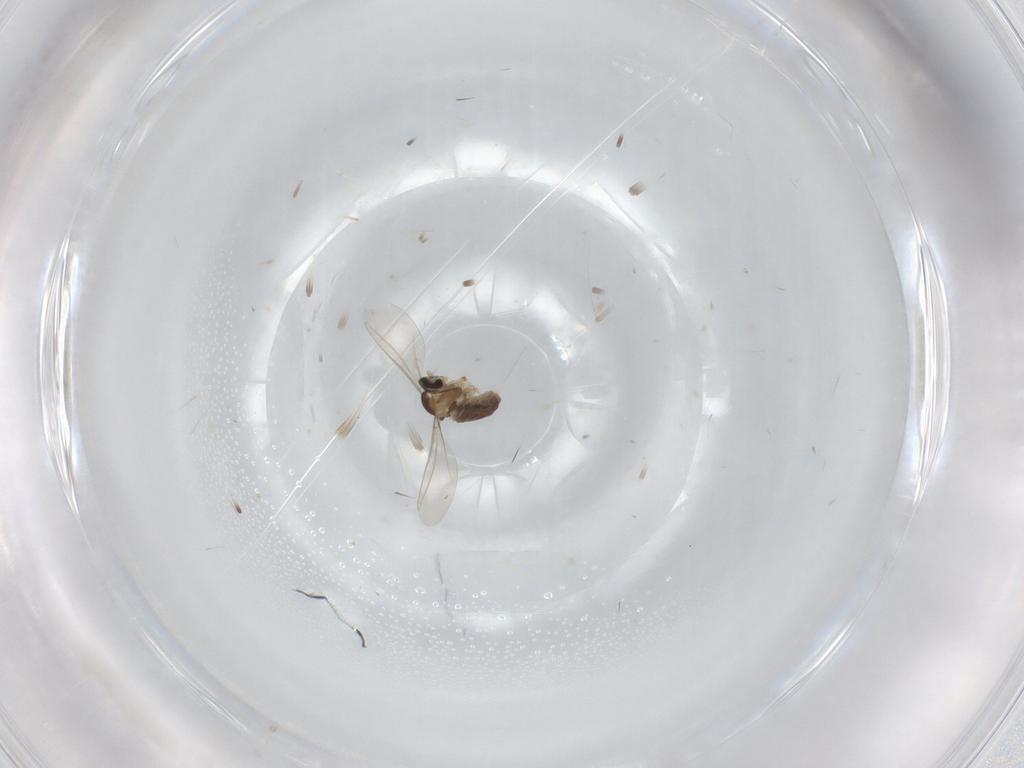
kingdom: Animalia
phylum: Arthropoda
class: Insecta
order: Diptera
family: Cecidomyiidae
